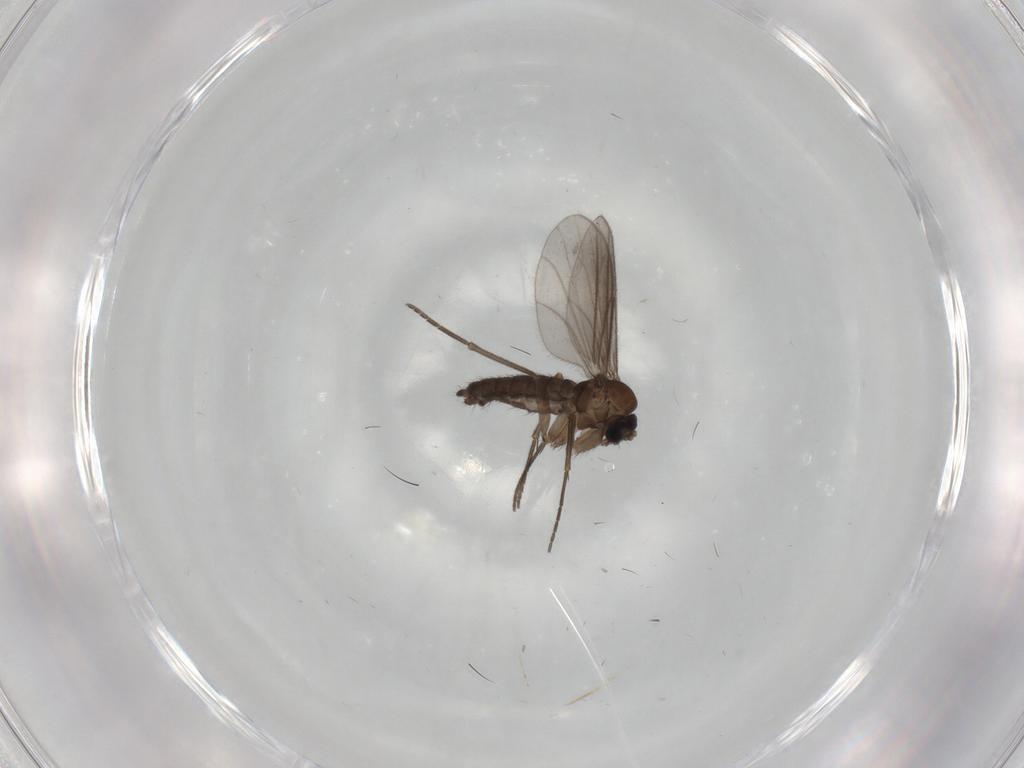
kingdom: Animalia
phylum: Arthropoda
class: Insecta
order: Diptera
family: Sciaridae
